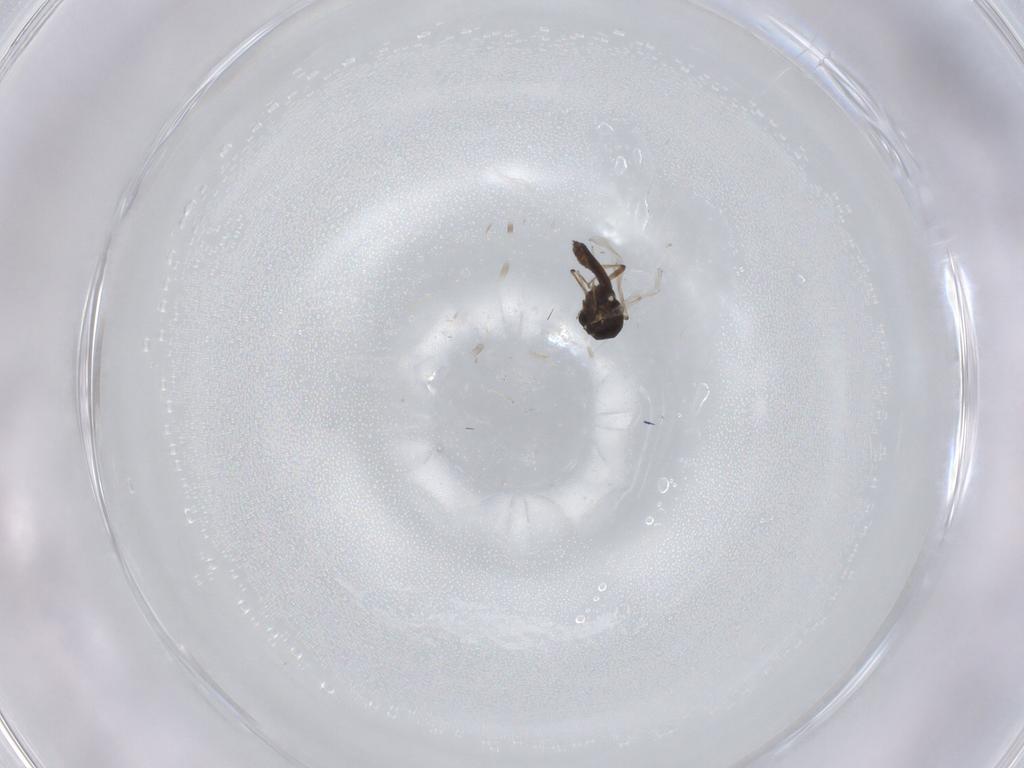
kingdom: Animalia
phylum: Arthropoda
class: Insecta
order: Diptera
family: Ceratopogonidae
